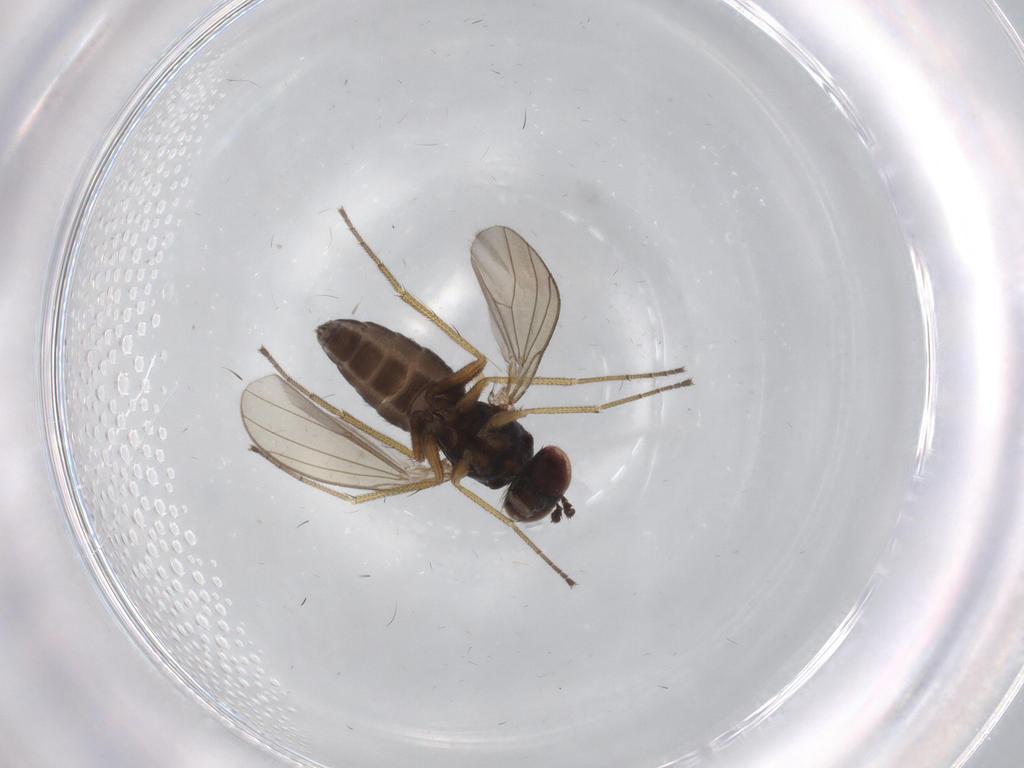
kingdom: Animalia
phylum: Arthropoda
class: Insecta
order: Diptera
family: Dolichopodidae
